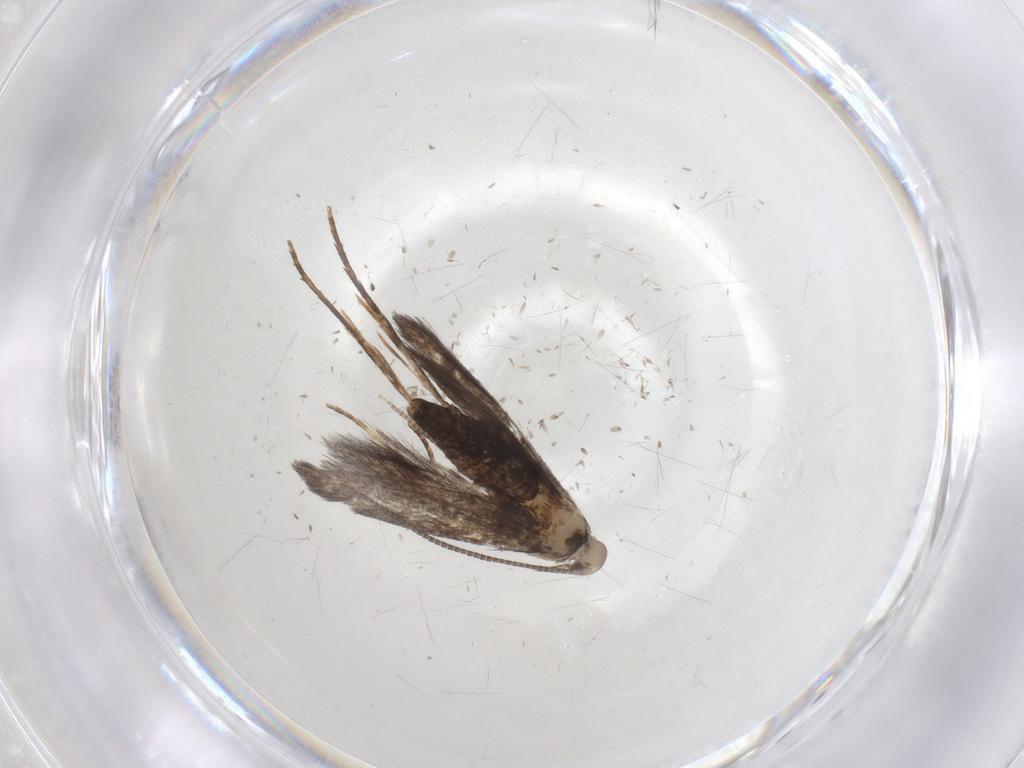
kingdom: Animalia
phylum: Arthropoda
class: Insecta
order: Lepidoptera
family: Gracillariidae
